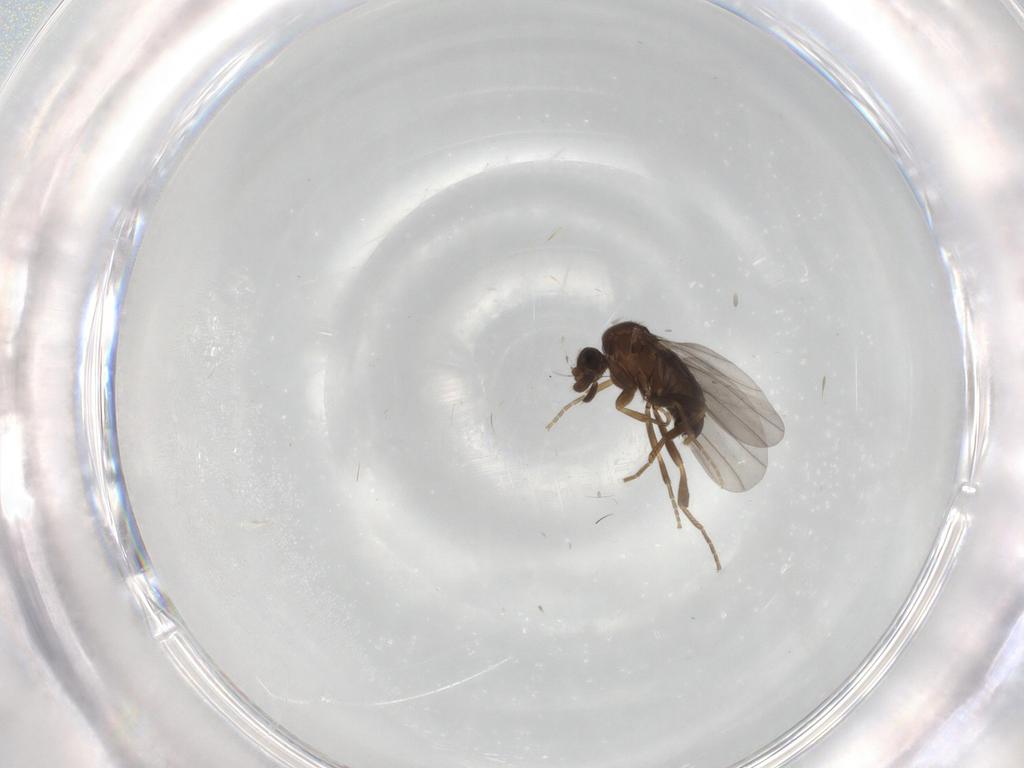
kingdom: Animalia
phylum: Arthropoda
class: Insecta
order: Diptera
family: Phoridae
